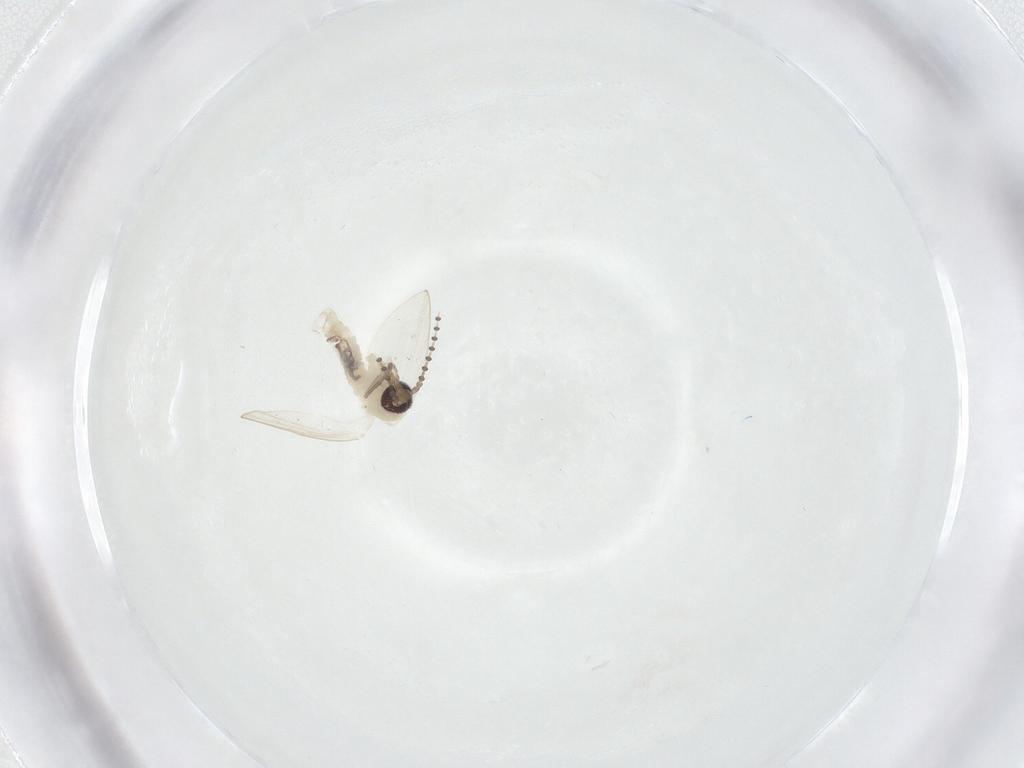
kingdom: Animalia
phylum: Arthropoda
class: Insecta
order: Diptera
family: Psychodidae
